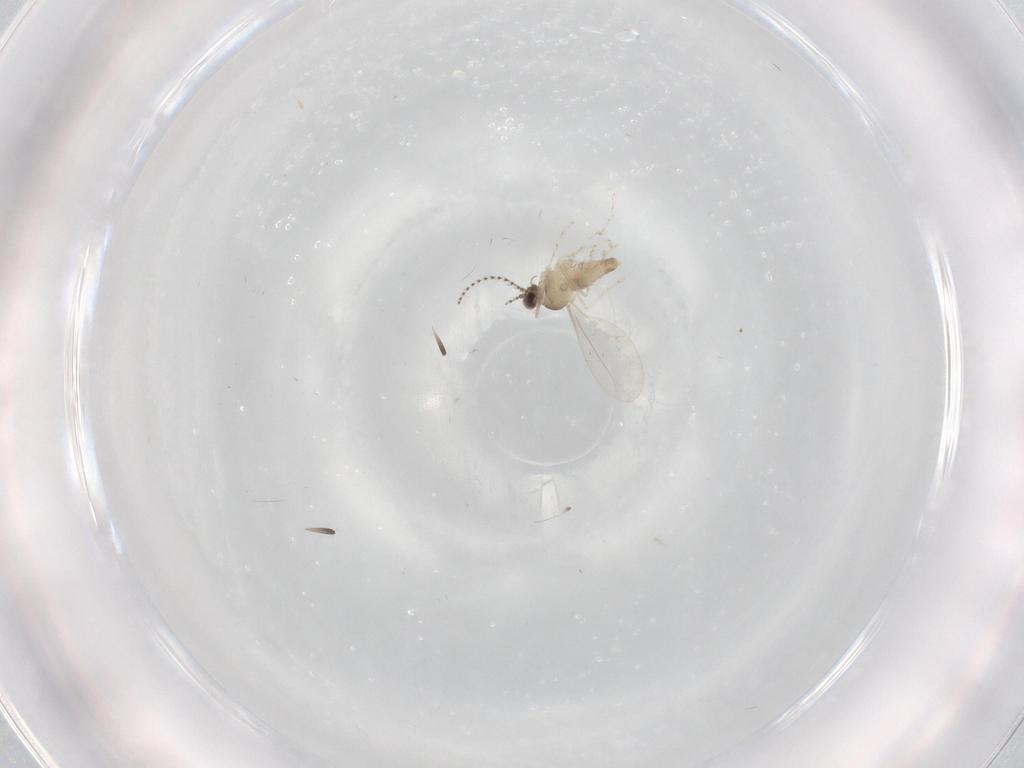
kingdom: Animalia
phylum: Arthropoda
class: Insecta
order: Diptera
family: Cecidomyiidae
